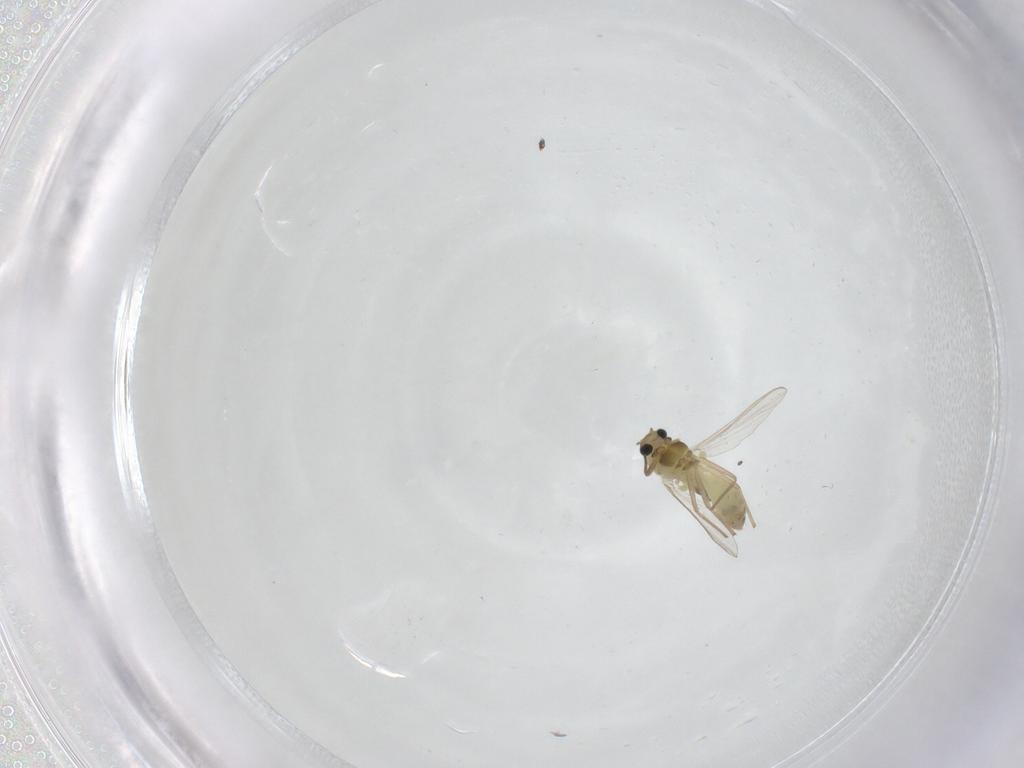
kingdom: Animalia
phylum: Arthropoda
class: Insecta
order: Diptera
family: Chironomidae
